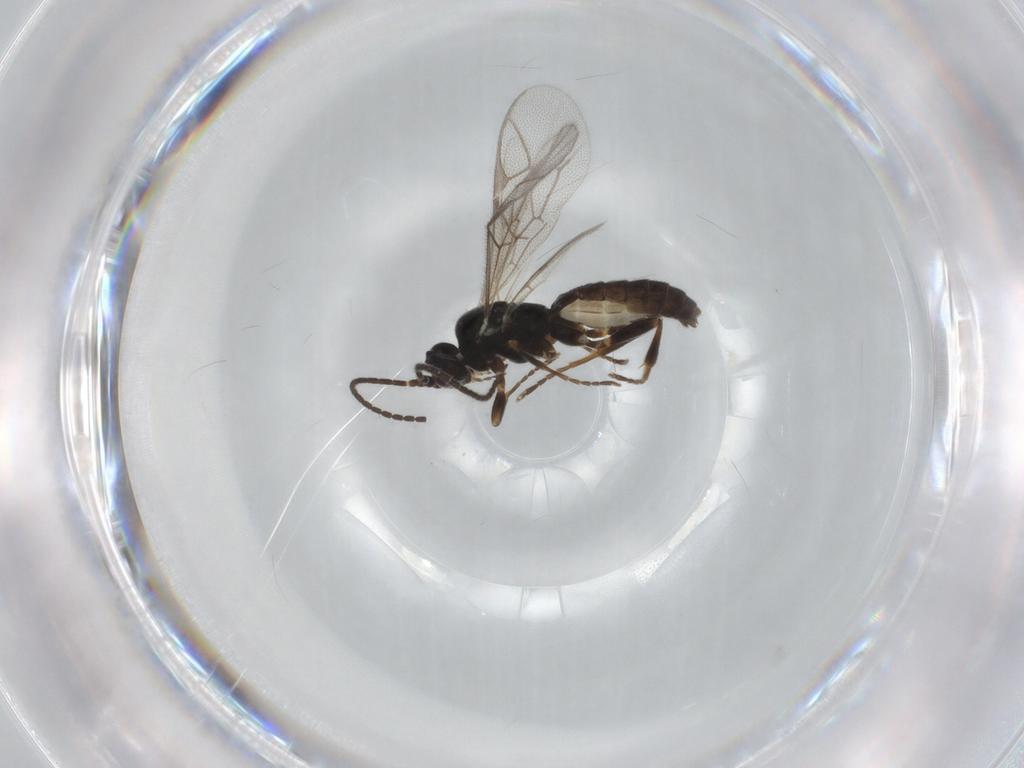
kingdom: Animalia
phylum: Arthropoda
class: Insecta
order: Hymenoptera
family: Ichneumonidae
